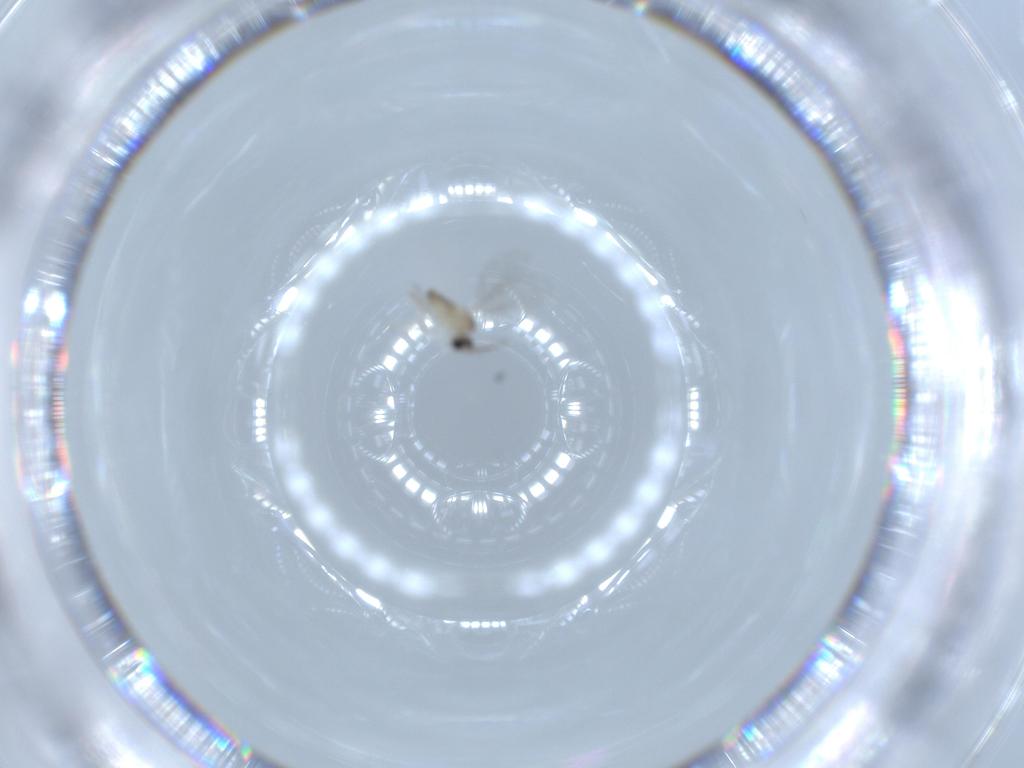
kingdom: Animalia
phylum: Arthropoda
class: Insecta
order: Diptera
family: Cecidomyiidae
